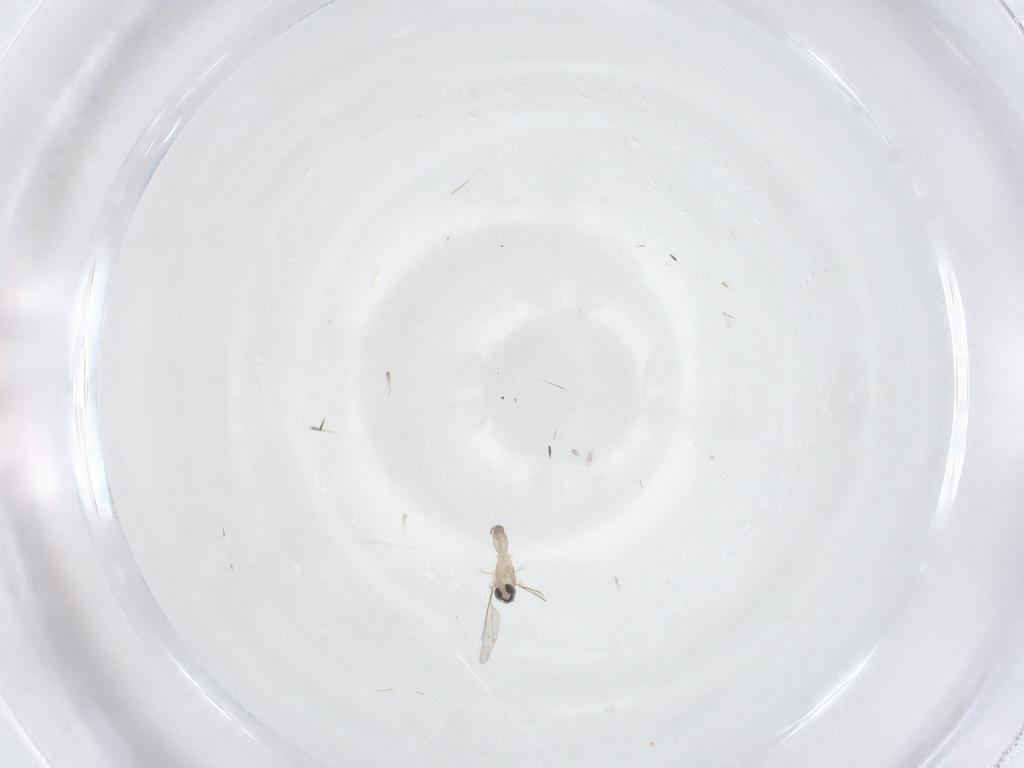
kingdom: Animalia
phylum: Arthropoda
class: Insecta
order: Diptera
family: Cecidomyiidae
